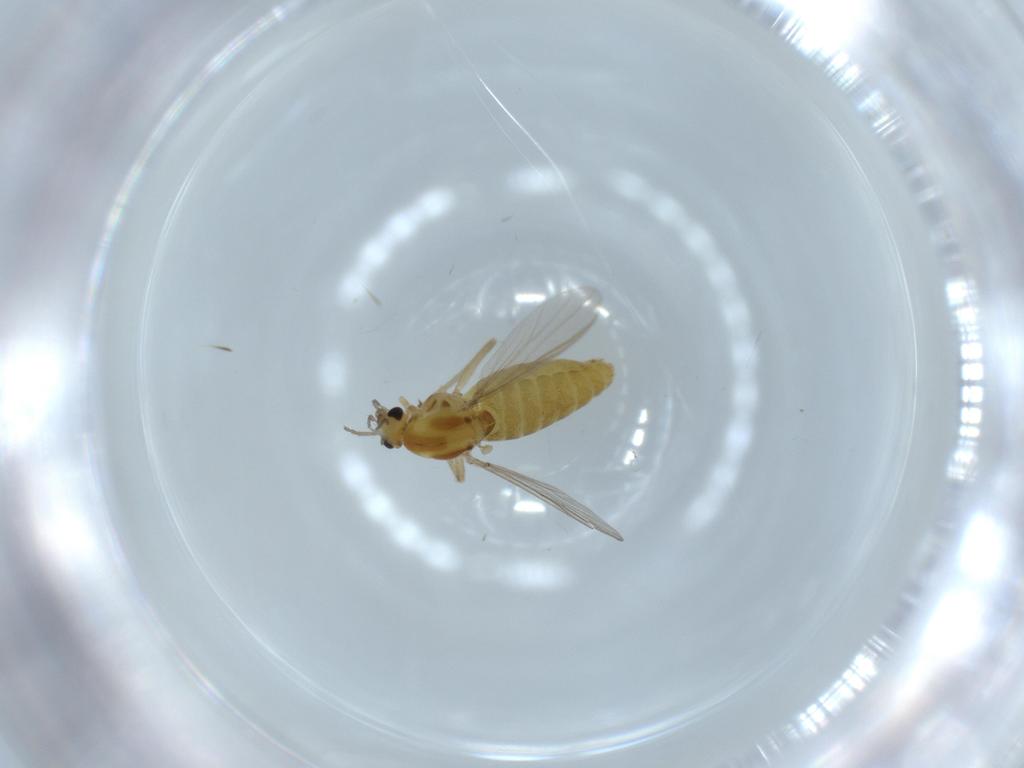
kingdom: Animalia
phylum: Arthropoda
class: Insecta
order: Diptera
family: Chironomidae
